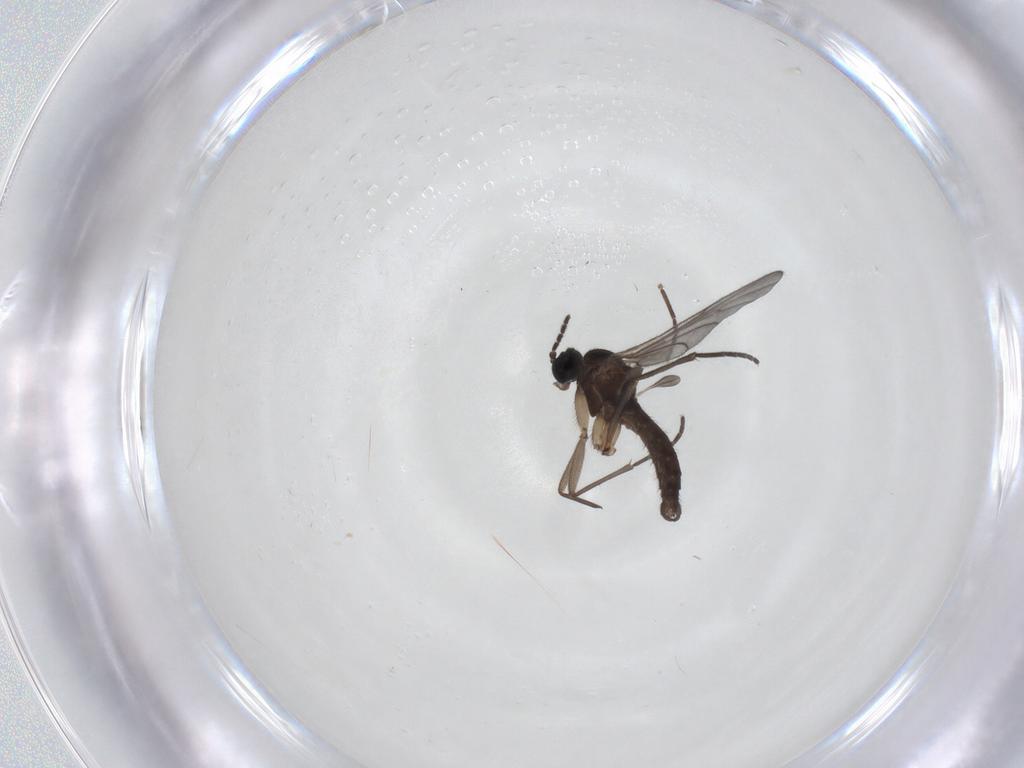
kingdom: Animalia
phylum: Arthropoda
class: Insecta
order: Diptera
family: Sciaridae
